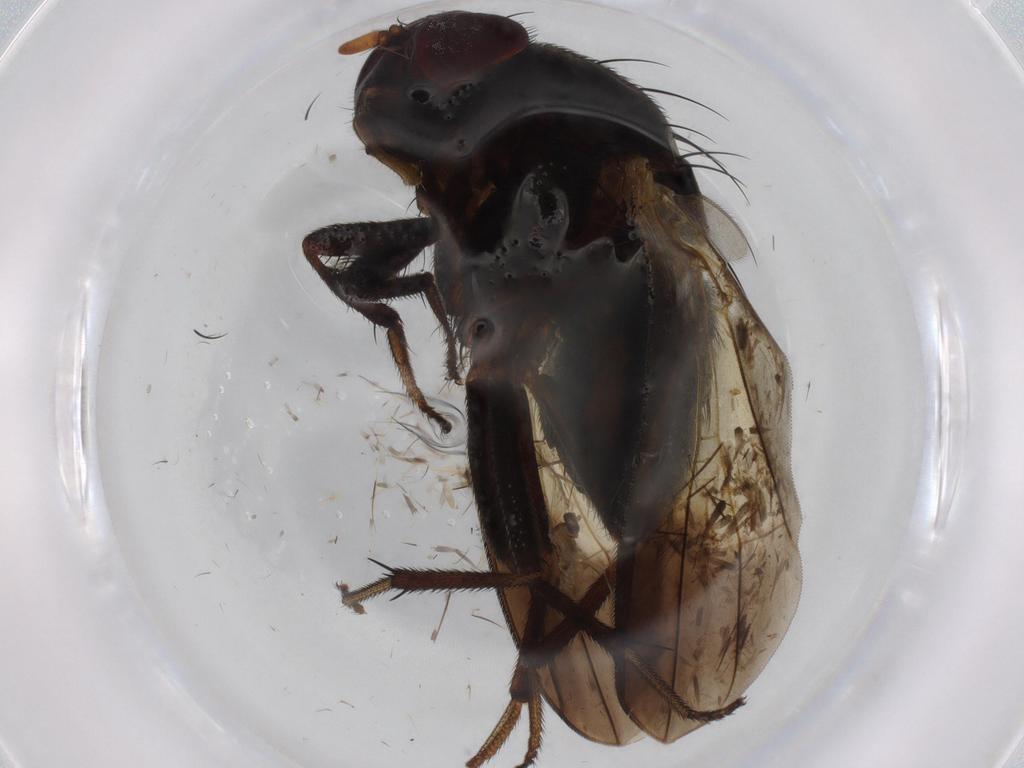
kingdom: Animalia
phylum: Arthropoda
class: Insecta
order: Diptera
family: Lauxaniidae
